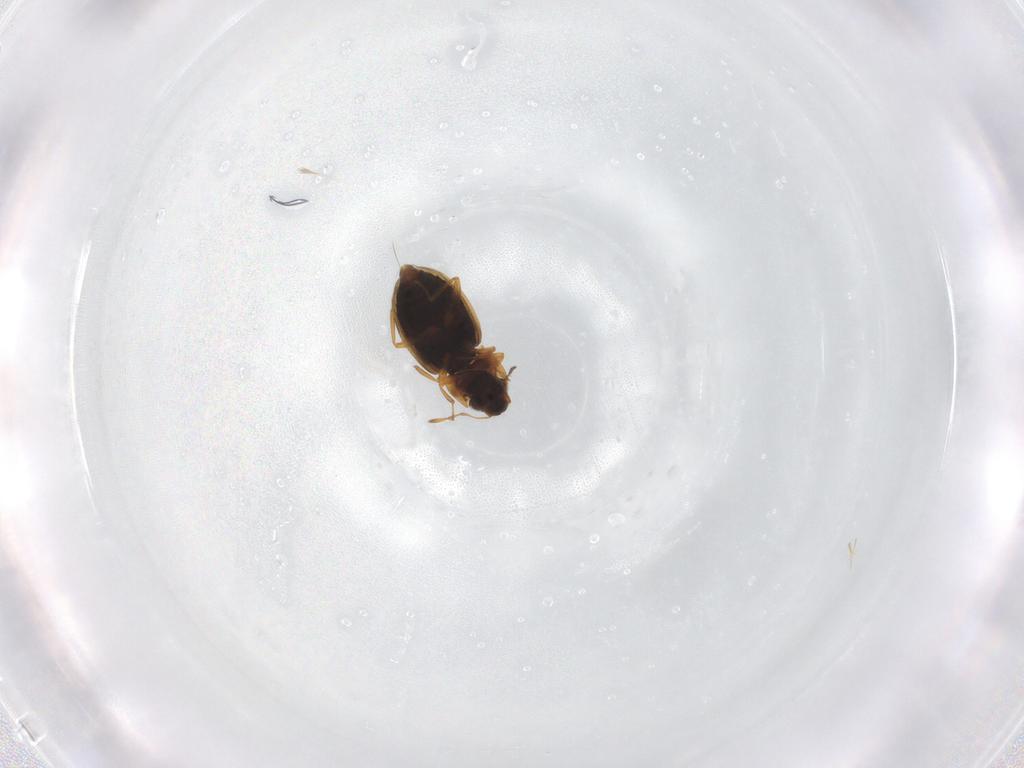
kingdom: Animalia
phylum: Arthropoda
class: Insecta
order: Coleoptera
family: Hydraenidae
